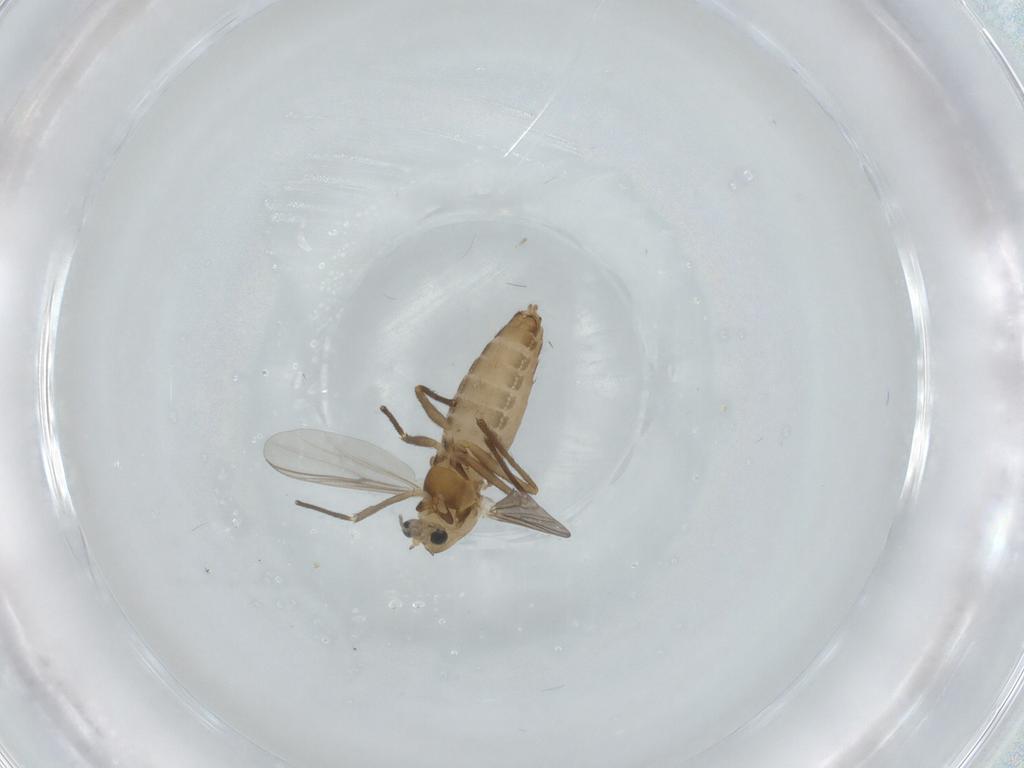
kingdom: Animalia
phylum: Arthropoda
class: Insecta
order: Diptera
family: Chironomidae
